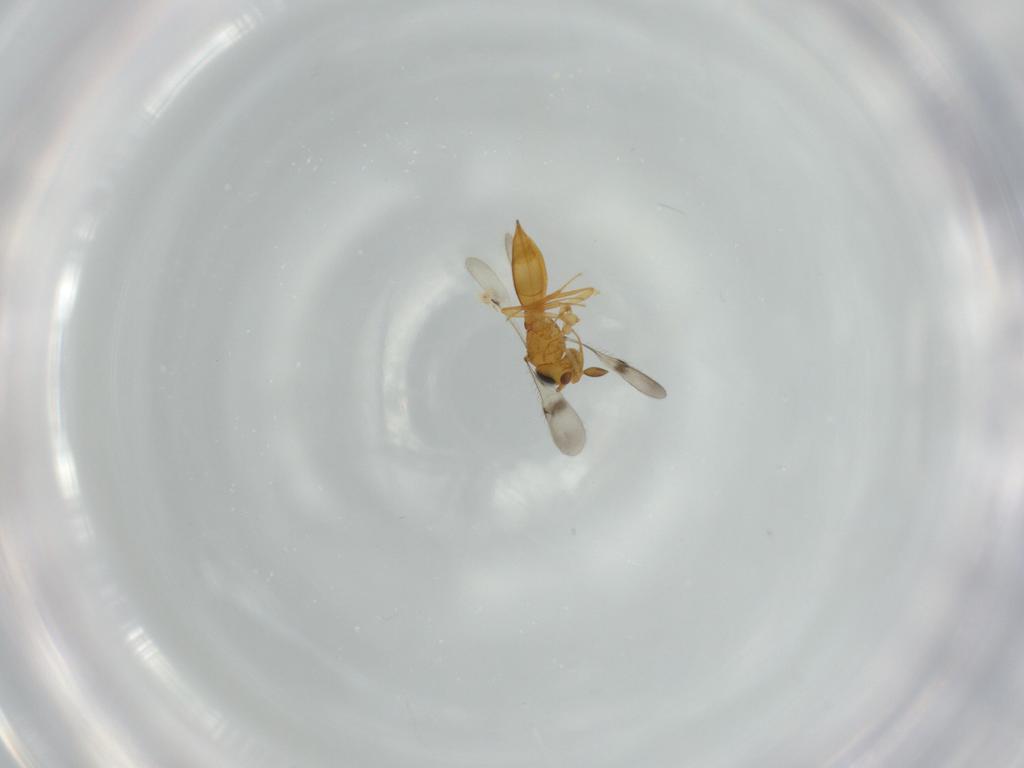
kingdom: Animalia
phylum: Arthropoda
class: Insecta
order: Hymenoptera
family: Scelionidae
